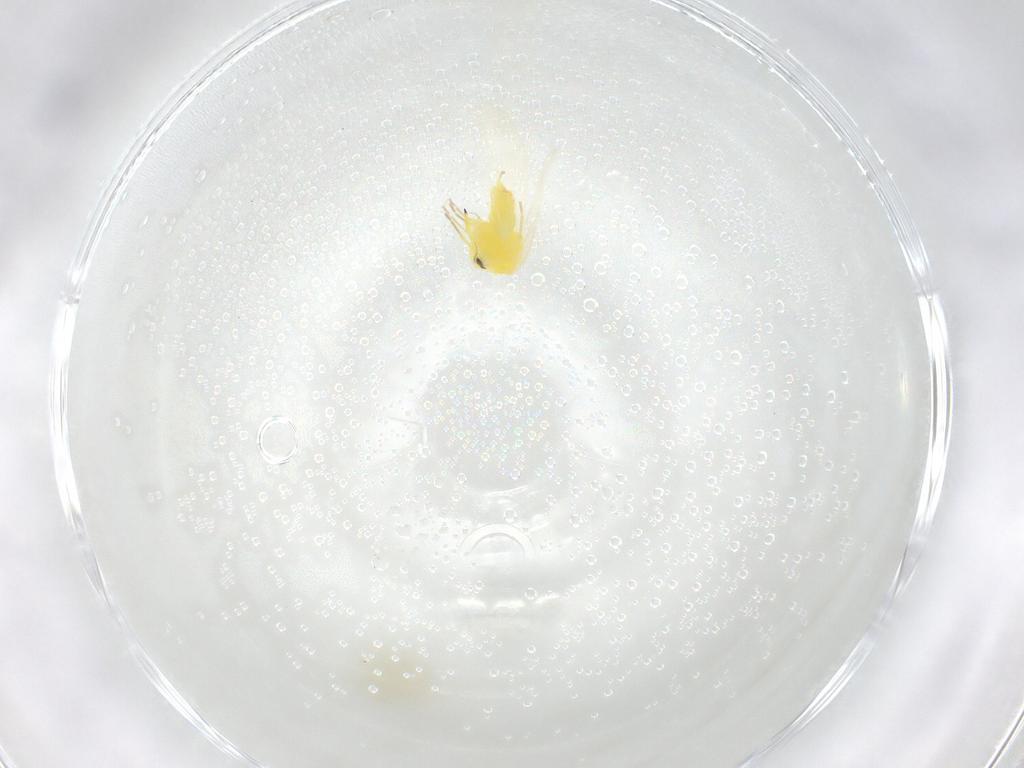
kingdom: Animalia
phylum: Arthropoda
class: Insecta
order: Hemiptera
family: Aleyrodidae
